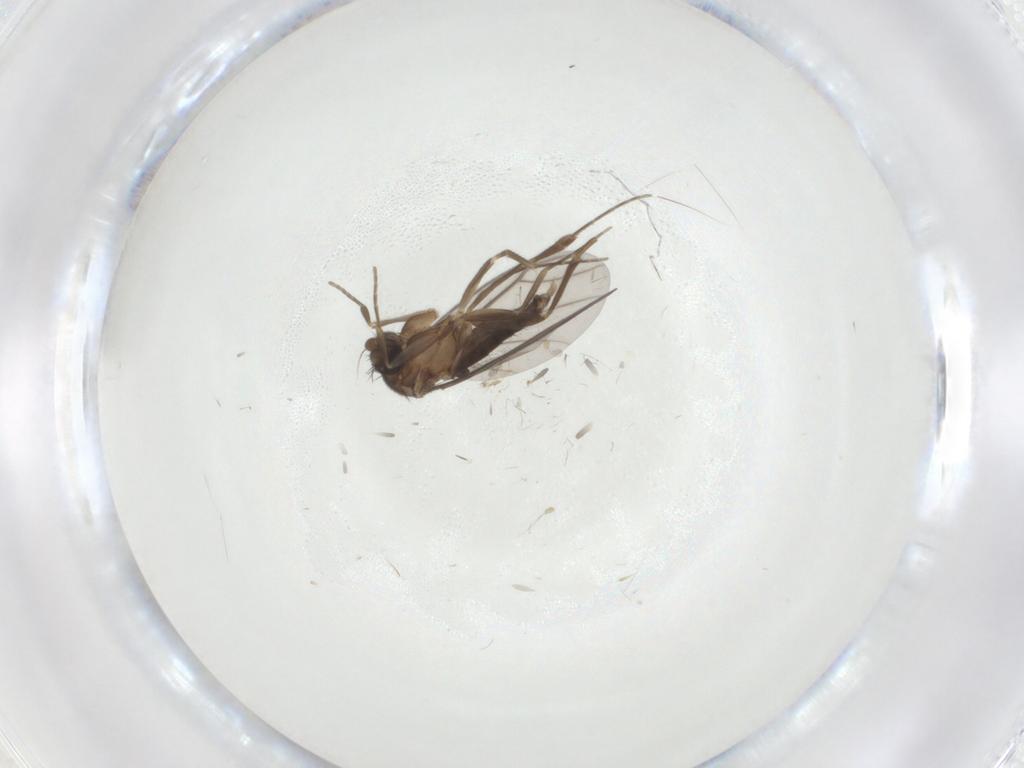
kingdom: Animalia
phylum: Arthropoda
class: Insecta
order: Diptera
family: Phoridae
